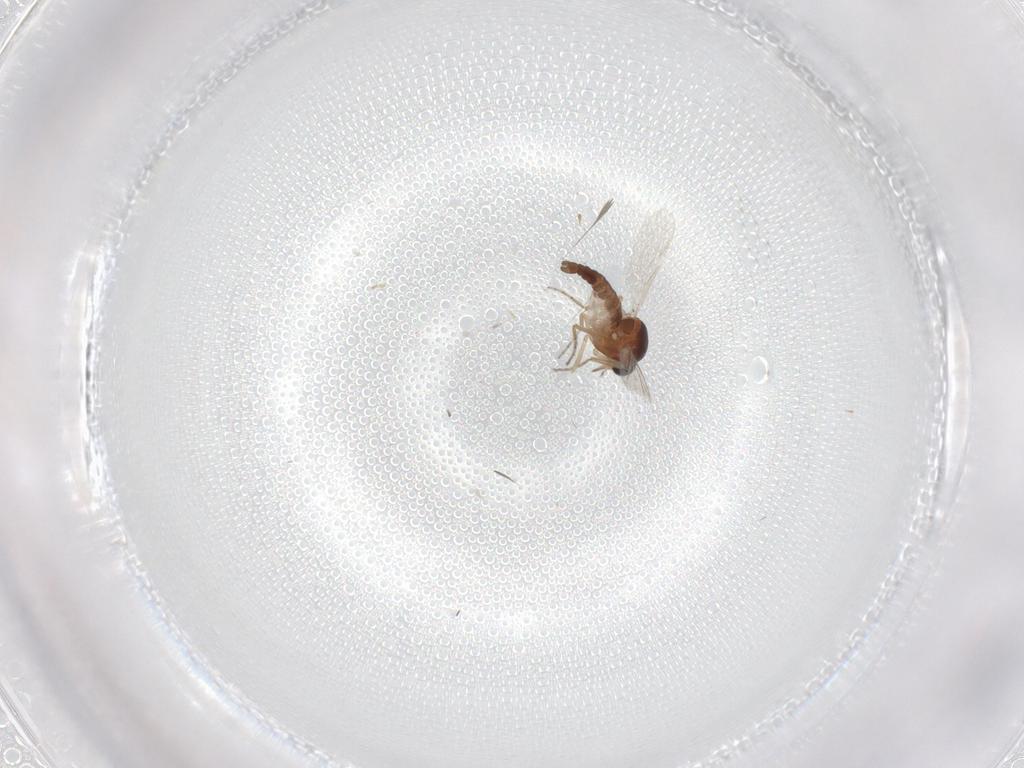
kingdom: Animalia
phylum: Arthropoda
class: Insecta
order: Diptera
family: Ceratopogonidae
